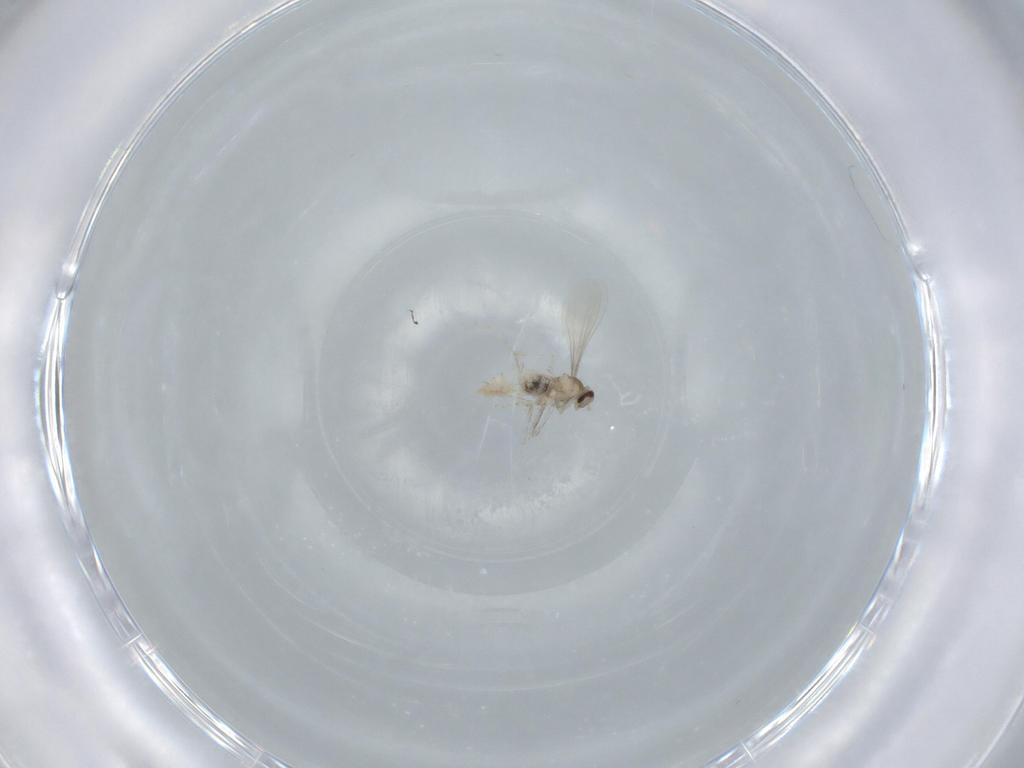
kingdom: Animalia
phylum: Arthropoda
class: Insecta
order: Diptera
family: Cecidomyiidae
